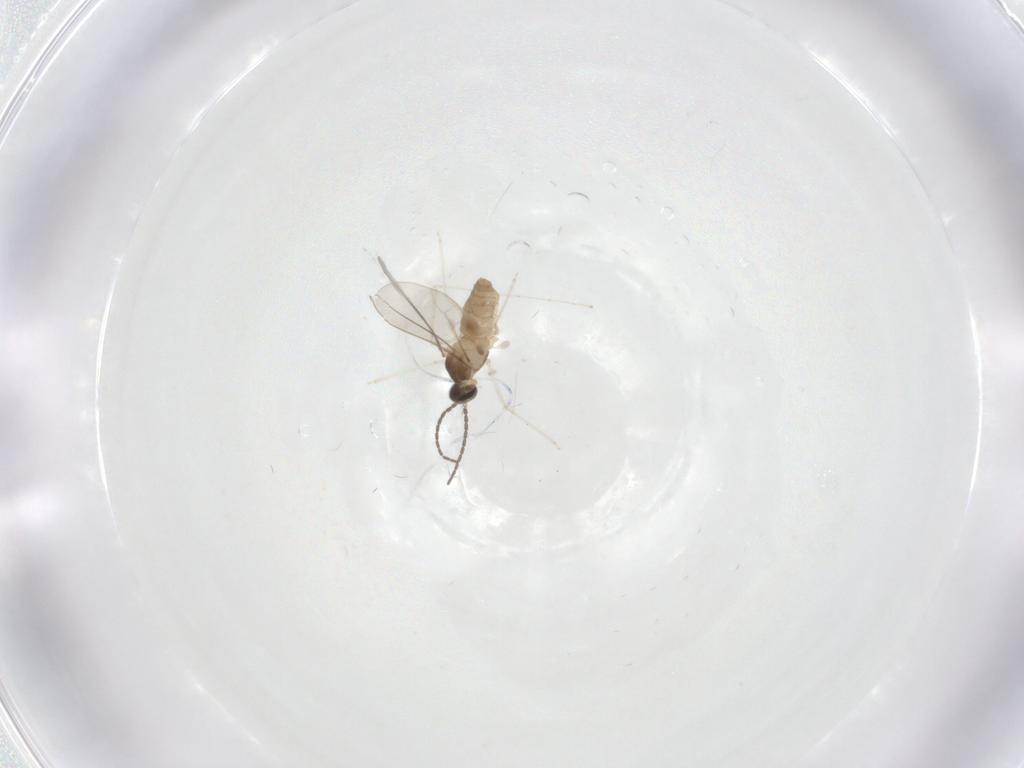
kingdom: Animalia
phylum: Arthropoda
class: Insecta
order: Diptera
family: Cecidomyiidae
